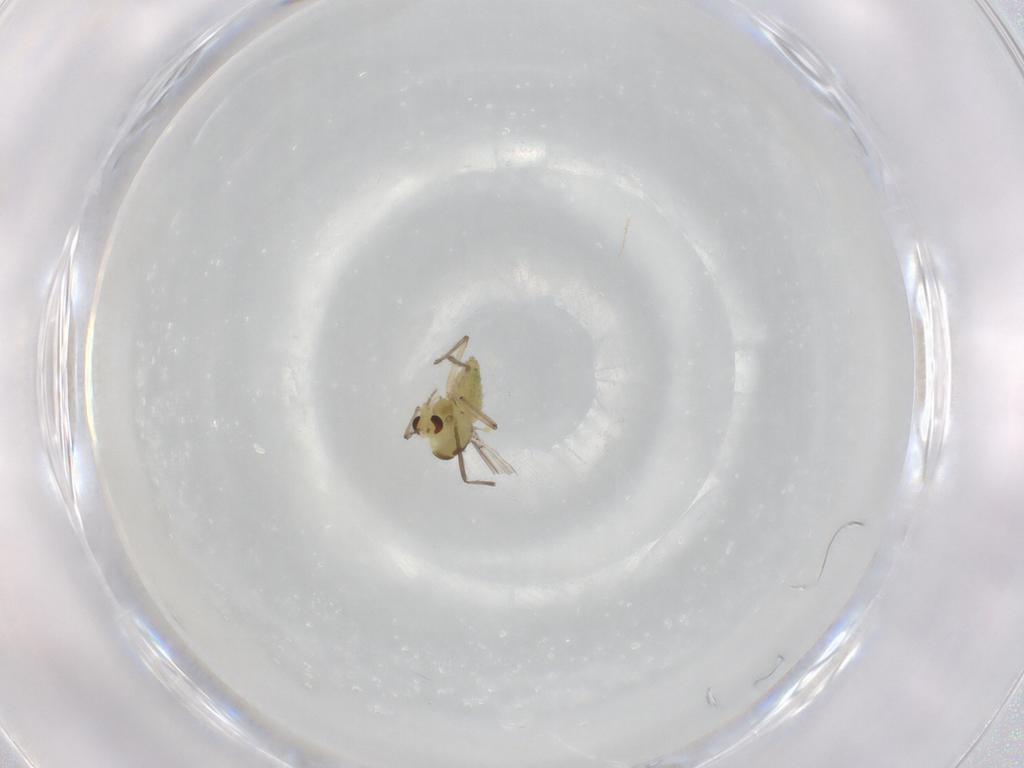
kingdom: Animalia
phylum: Arthropoda
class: Insecta
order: Diptera
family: Chironomidae
